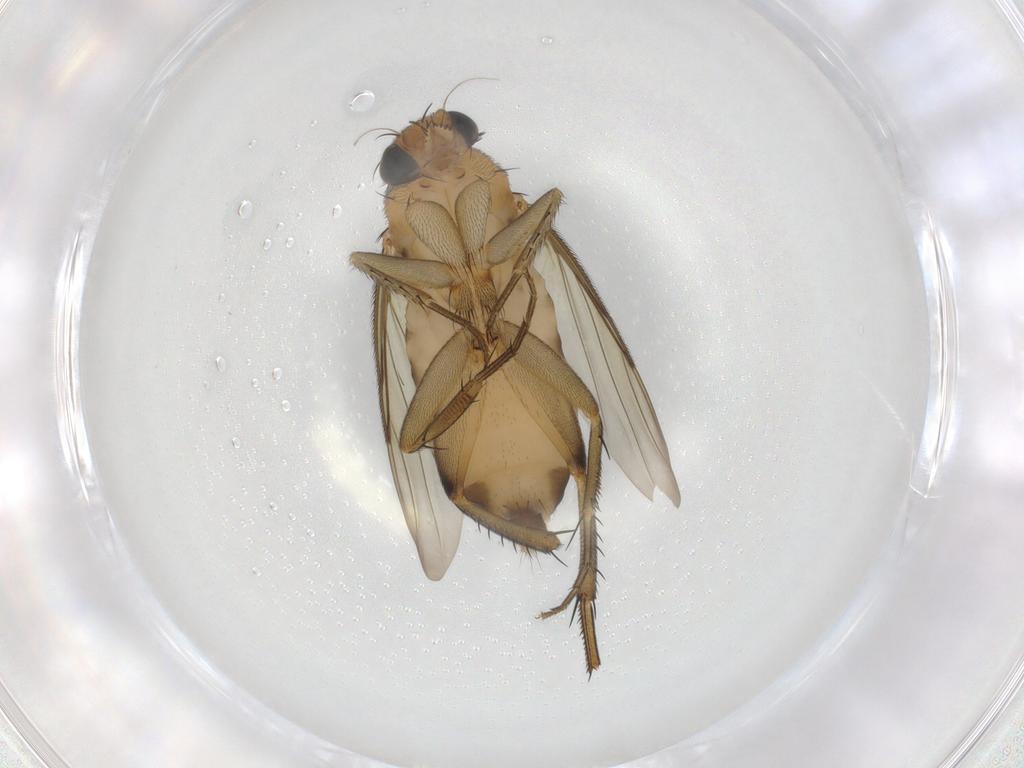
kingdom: Animalia
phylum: Arthropoda
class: Insecta
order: Diptera
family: Phoridae
